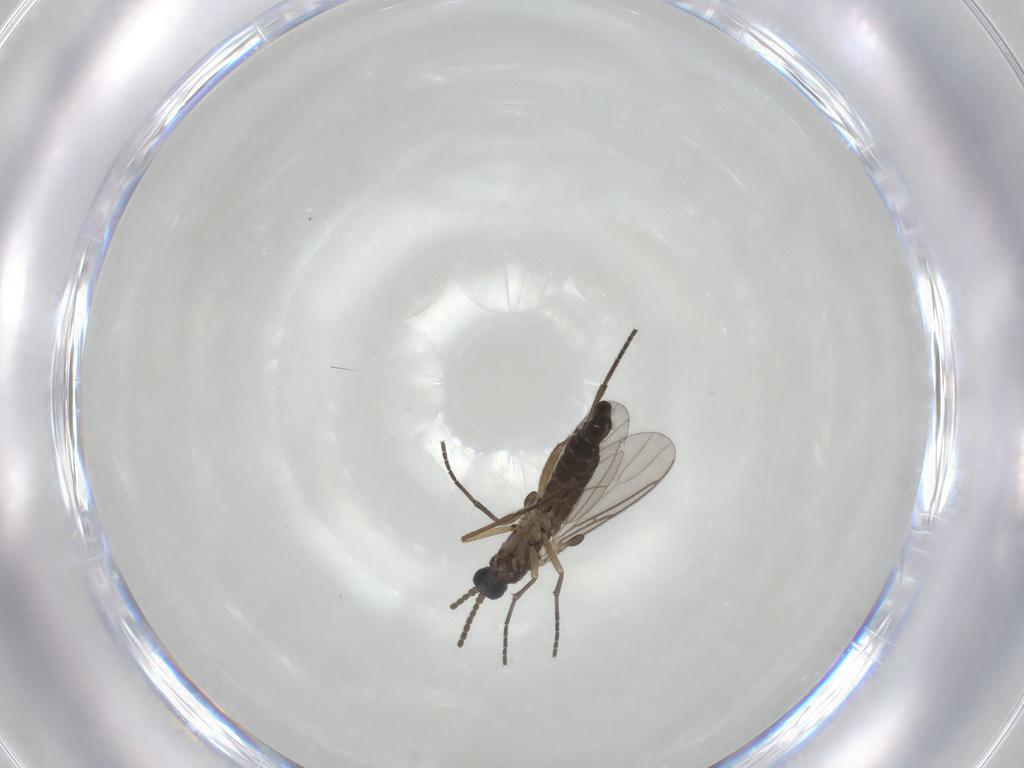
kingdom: Animalia
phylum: Arthropoda
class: Insecta
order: Diptera
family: Sciaridae
